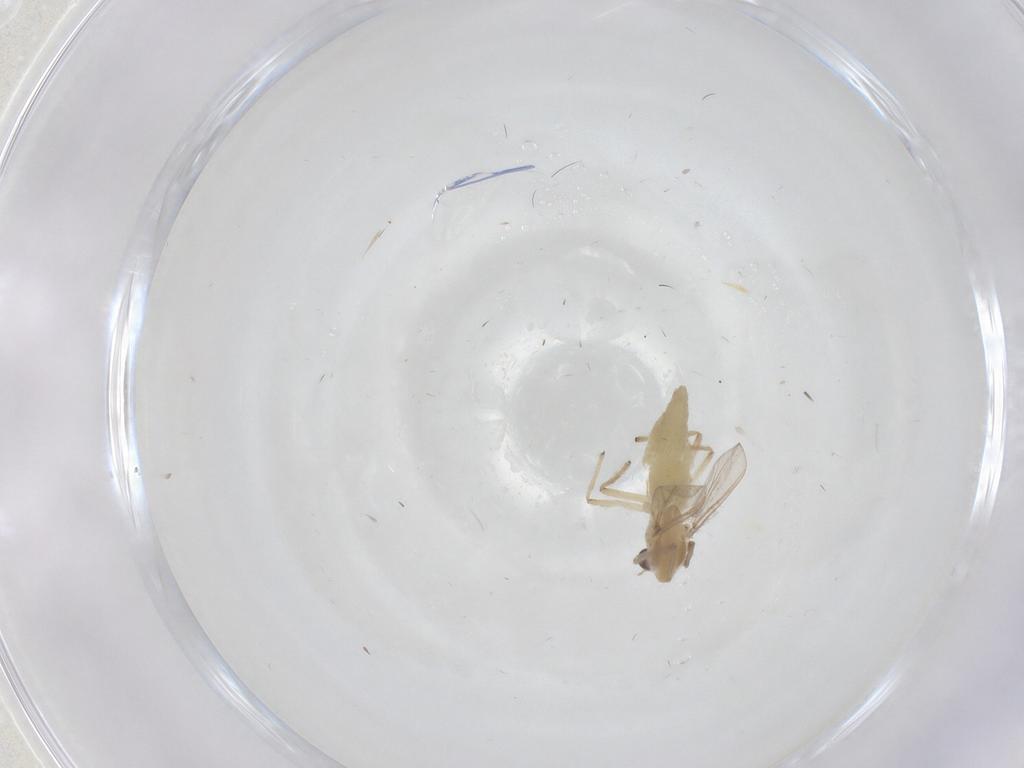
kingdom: Animalia
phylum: Arthropoda
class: Insecta
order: Diptera
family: Chironomidae
